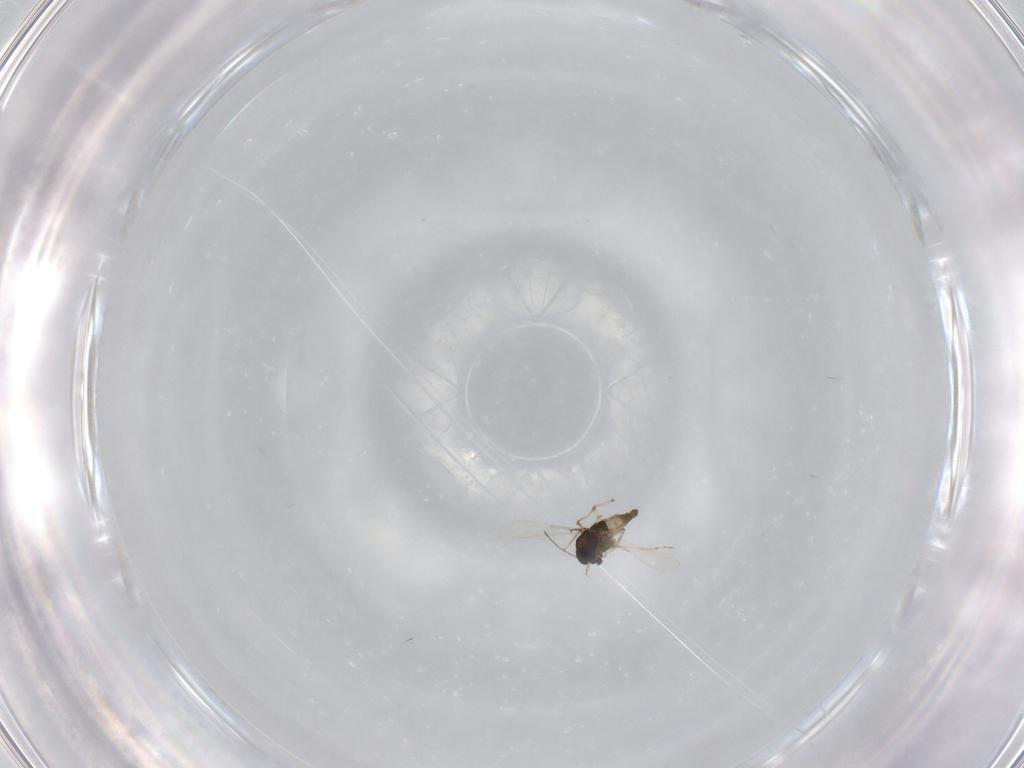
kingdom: Animalia
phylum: Arthropoda
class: Insecta
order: Diptera
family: Chironomidae
